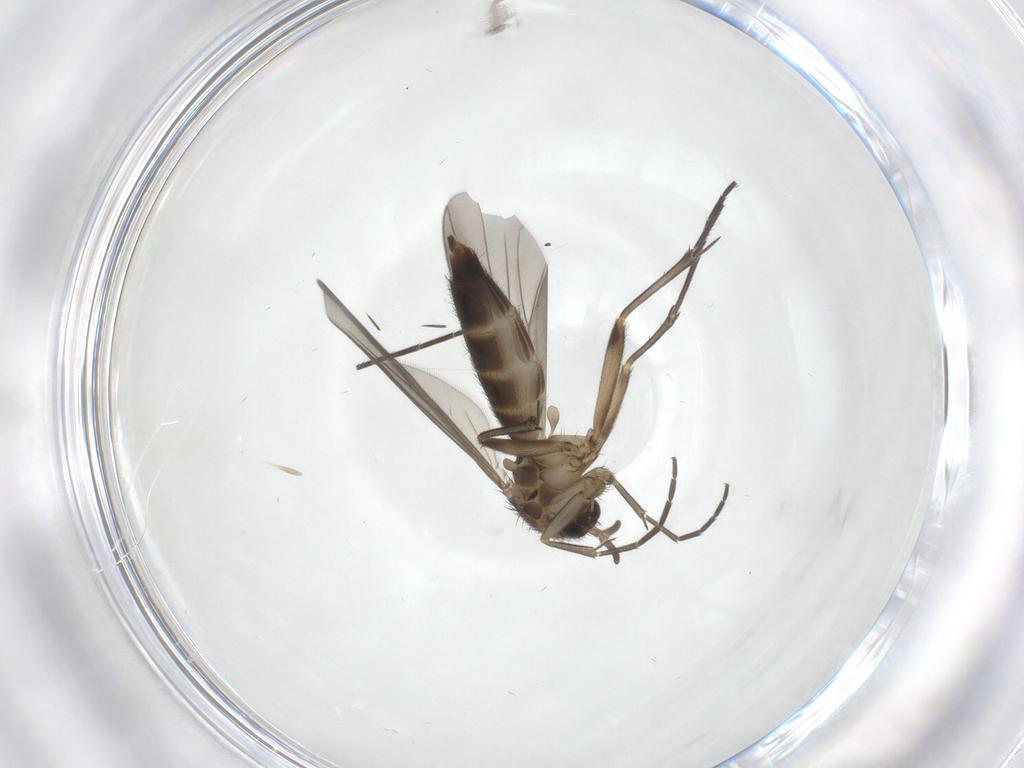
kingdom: Animalia
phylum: Arthropoda
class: Insecta
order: Diptera
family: Mycetophilidae
